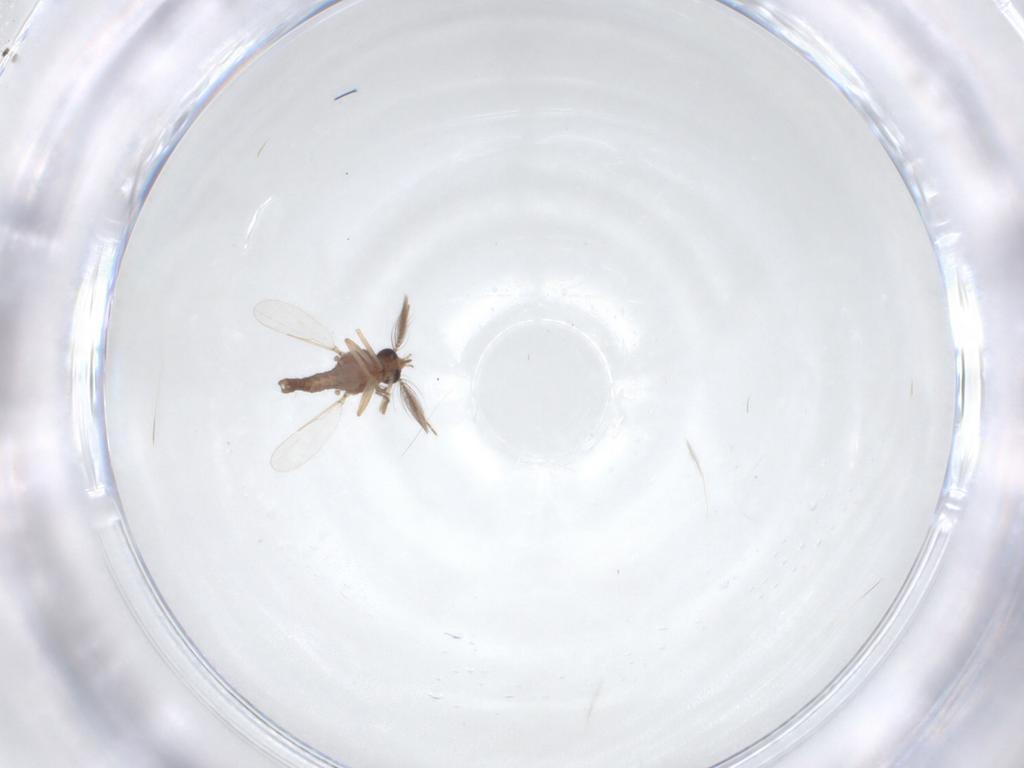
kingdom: Animalia
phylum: Arthropoda
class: Insecta
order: Diptera
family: Ceratopogonidae
